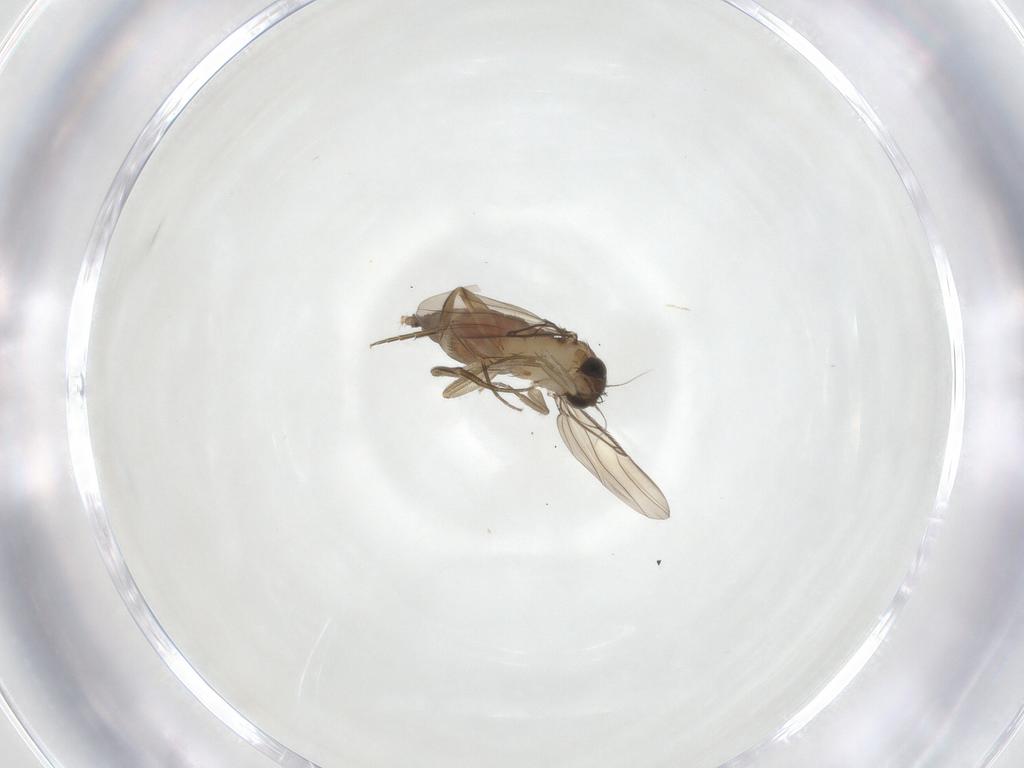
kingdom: Animalia
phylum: Arthropoda
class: Insecta
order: Diptera
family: Phoridae
